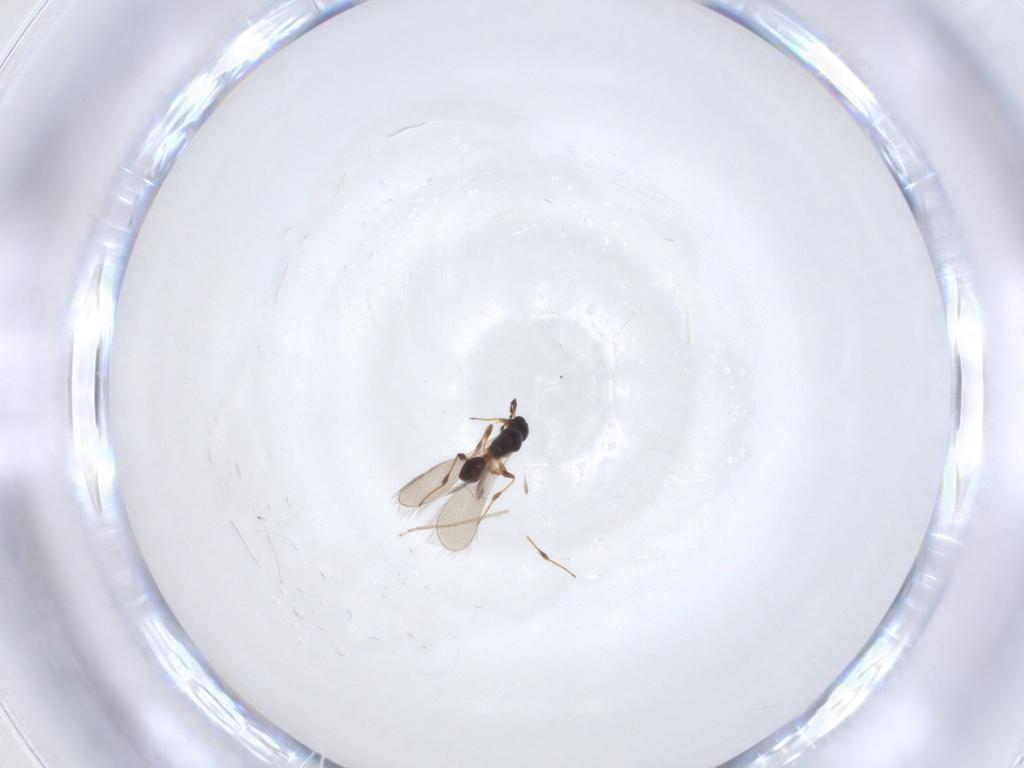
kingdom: Animalia
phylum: Arthropoda
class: Insecta
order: Hymenoptera
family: Platygastridae
